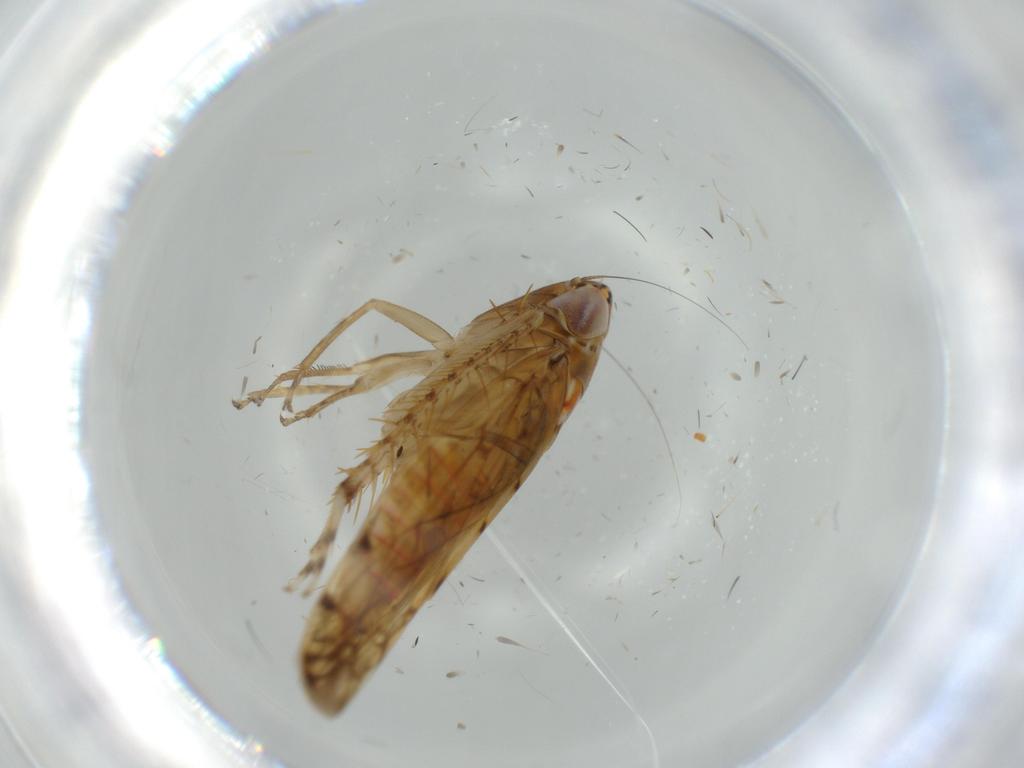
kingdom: Animalia
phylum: Arthropoda
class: Insecta
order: Hemiptera
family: Cicadellidae
